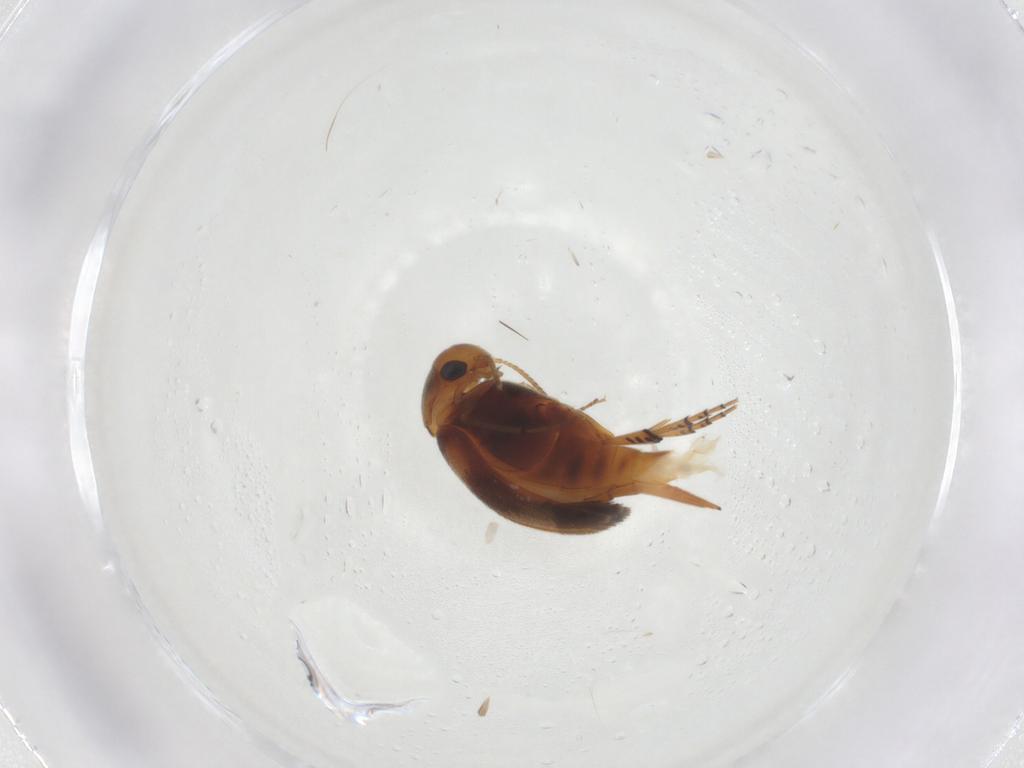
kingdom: Animalia
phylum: Arthropoda
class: Insecta
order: Coleoptera
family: Mordellidae
